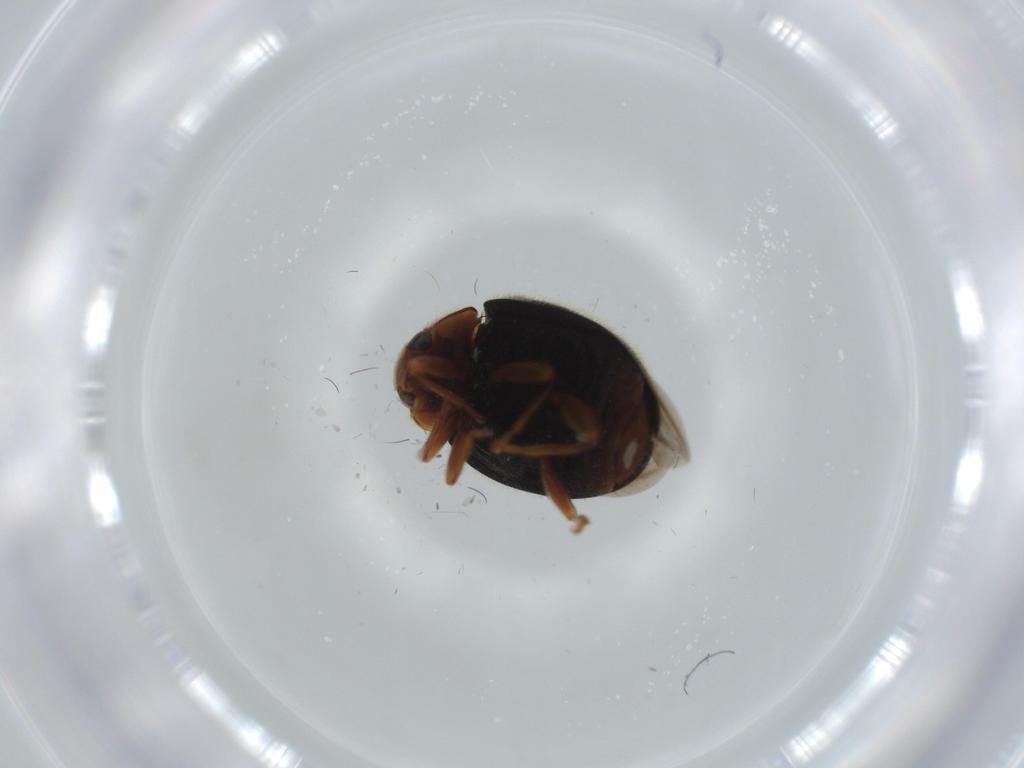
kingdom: Animalia
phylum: Arthropoda
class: Insecta
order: Coleoptera
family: Coccinellidae
